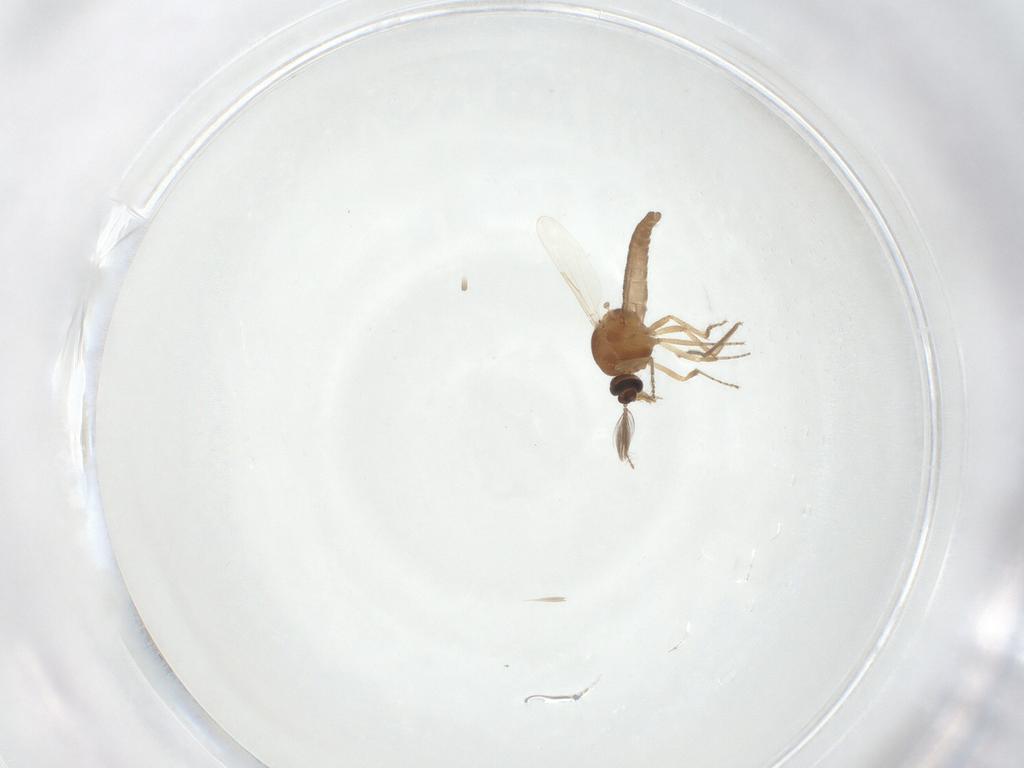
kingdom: Animalia
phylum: Arthropoda
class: Insecta
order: Diptera
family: Ceratopogonidae
